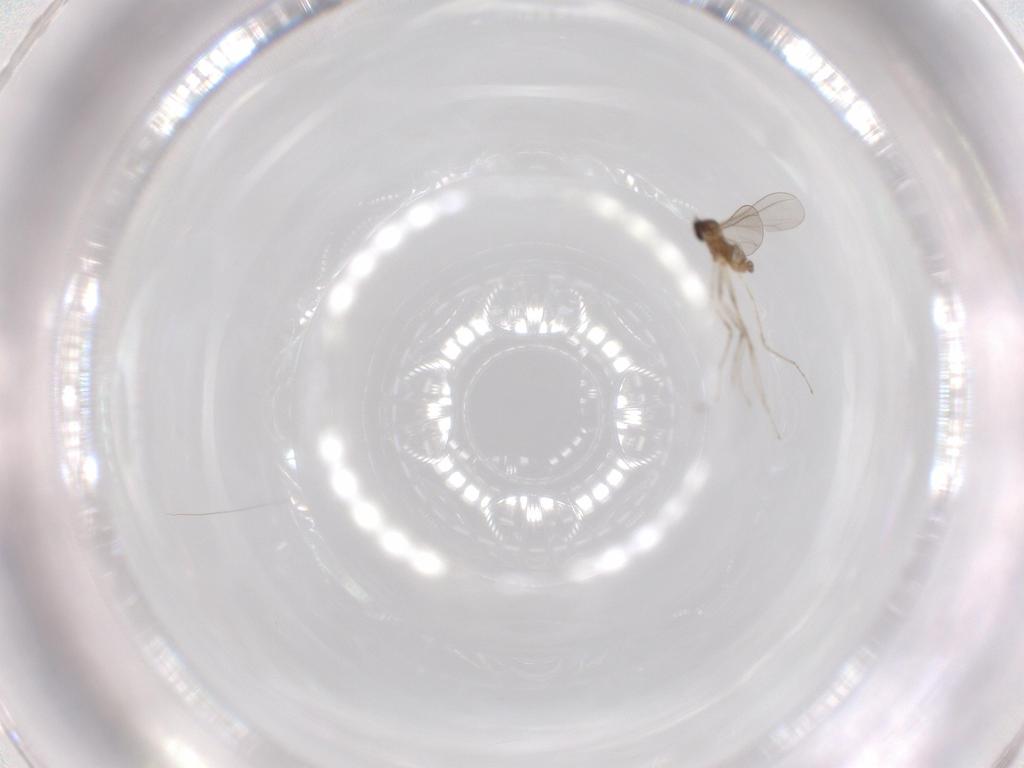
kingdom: Animalia
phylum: Arthropoda
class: Insecta
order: Diptera
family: Cecidomyiidae
